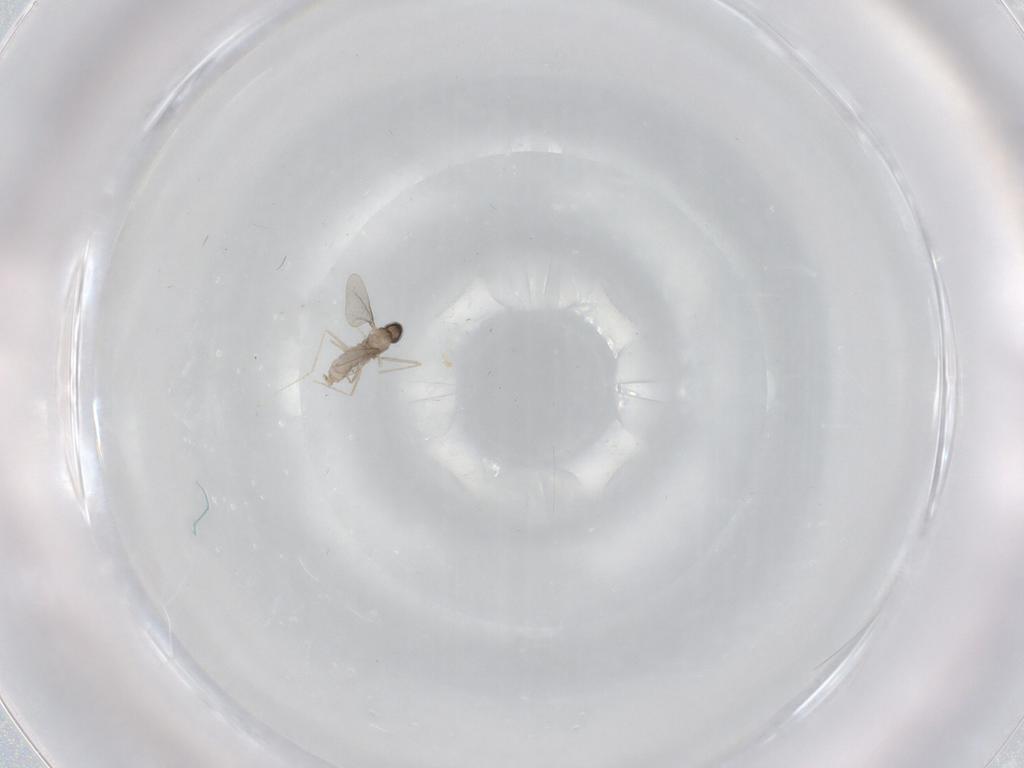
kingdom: Animalia
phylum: Arthropoda
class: Insecta
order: Diptera
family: Cecidomyiidae
